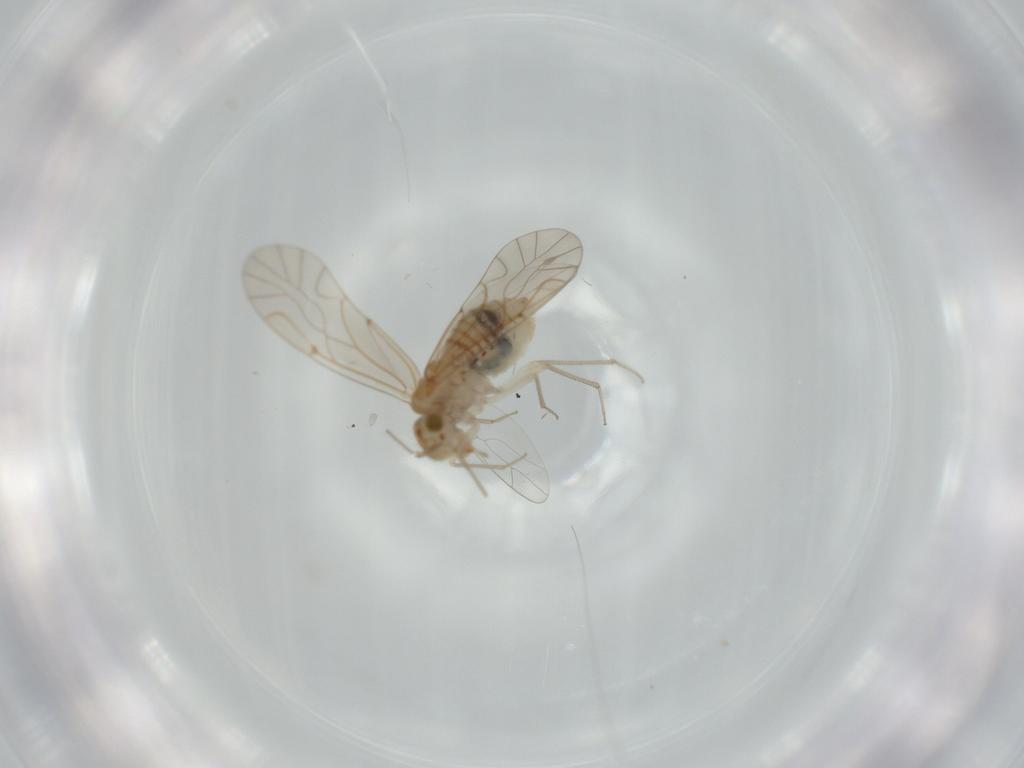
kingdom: Animalia
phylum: Arthropoda
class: Insecta
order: Psocodea
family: Lachesillidae
